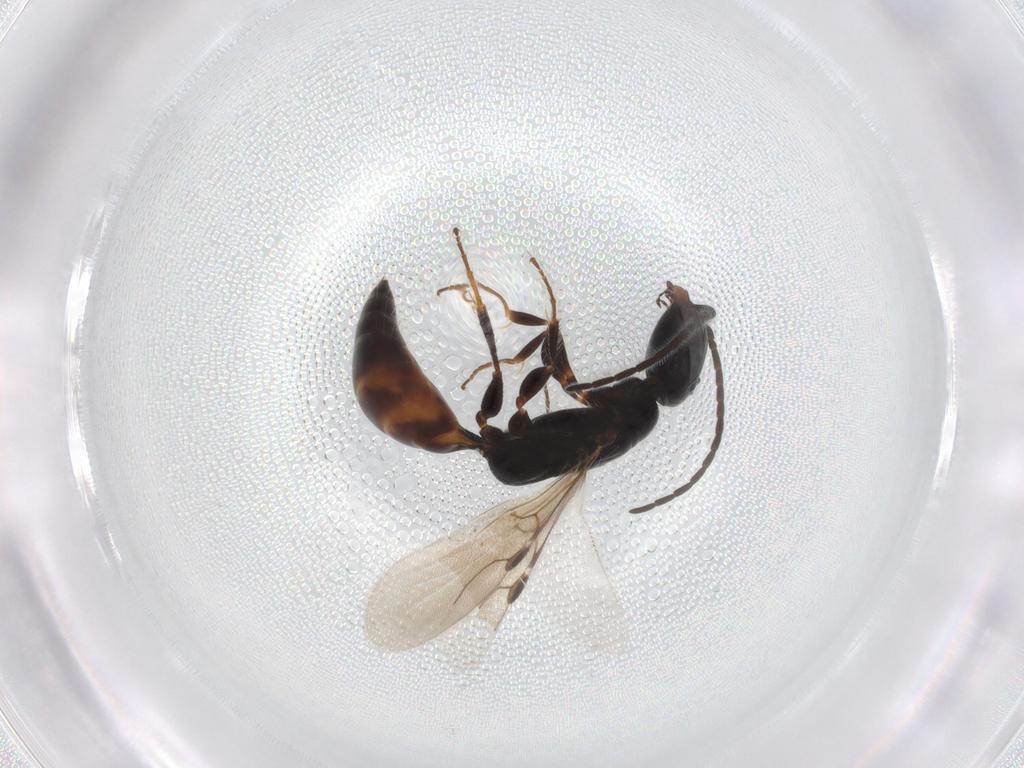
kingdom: Animalia
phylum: Arthropoda
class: Insecta
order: Hymenoptera
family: Bethylidae
